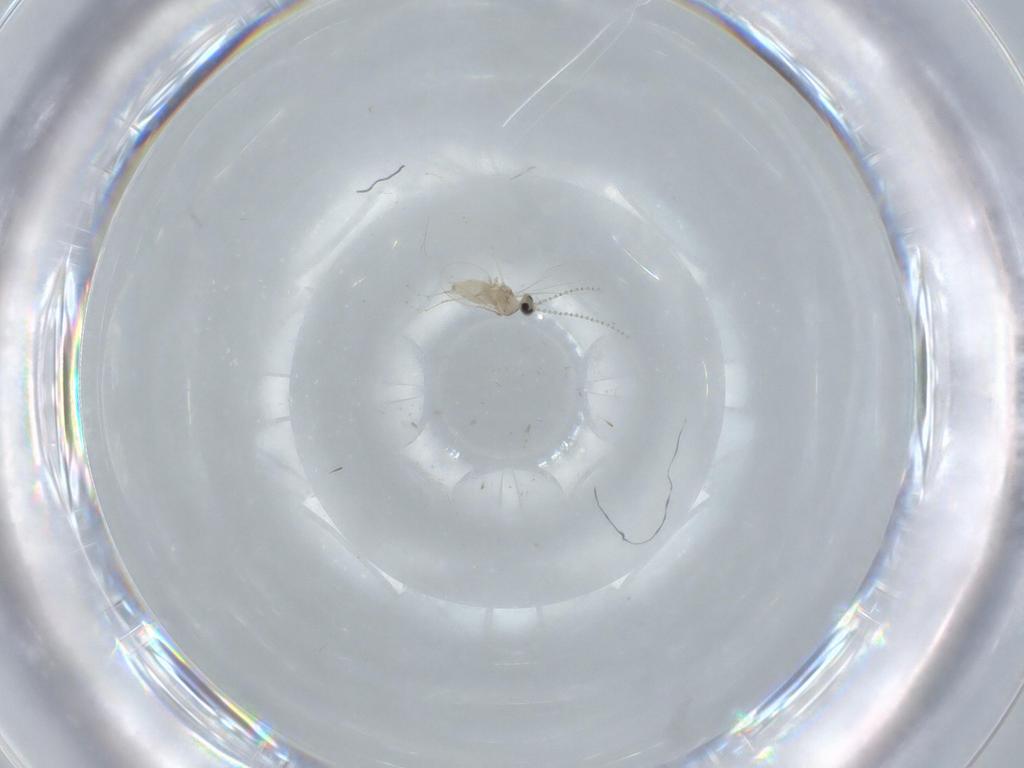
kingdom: Animalia
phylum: Arthropoda
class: Insecta
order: Diptera
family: Cecidomyiidae
